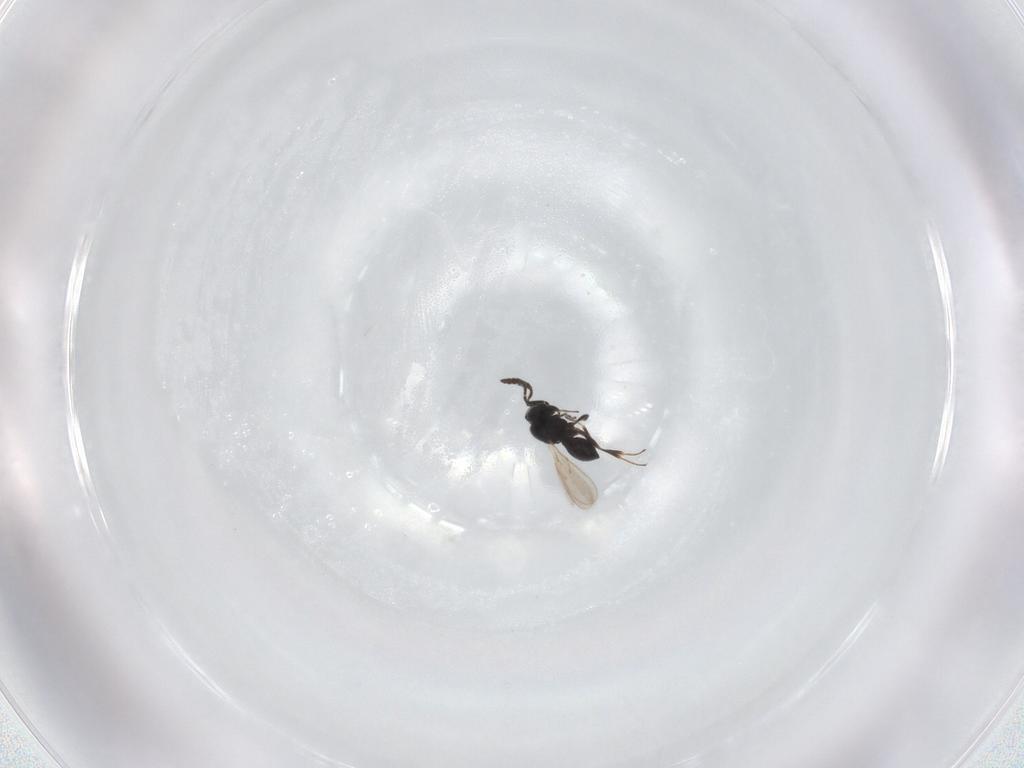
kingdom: Animalia
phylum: Arthropoda
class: Insecta
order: Hymenoptera
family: Scelionidae
